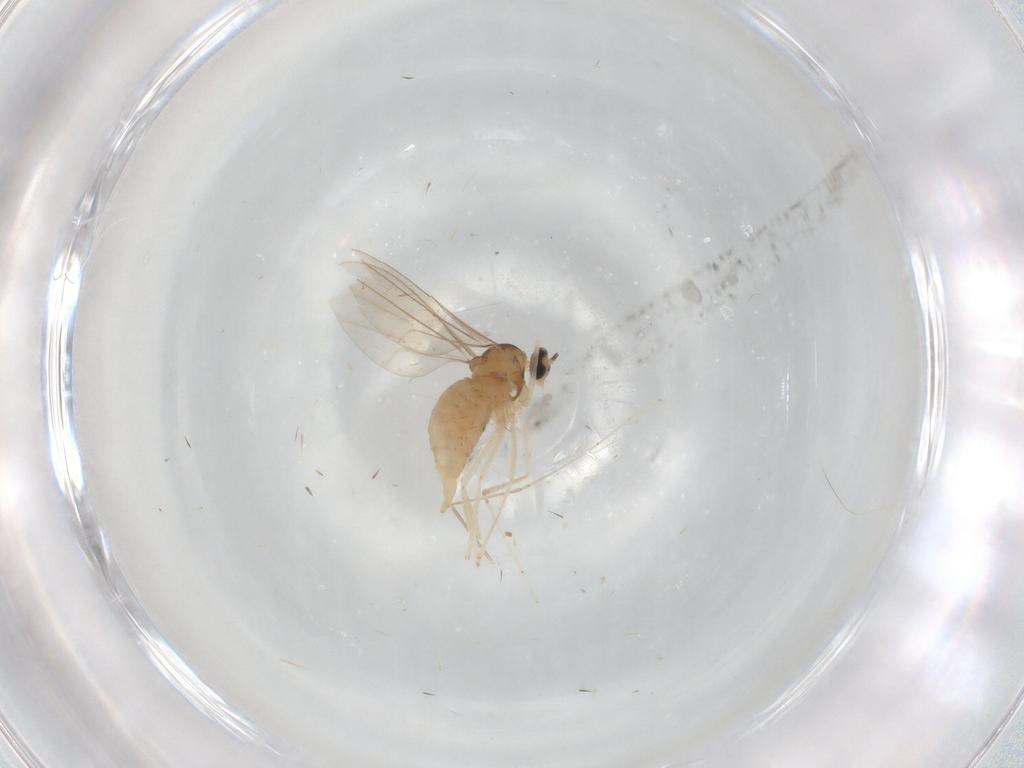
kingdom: Animalia
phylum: Arthropoda
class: Insecta
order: Diptera
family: Cecidomyiidae
